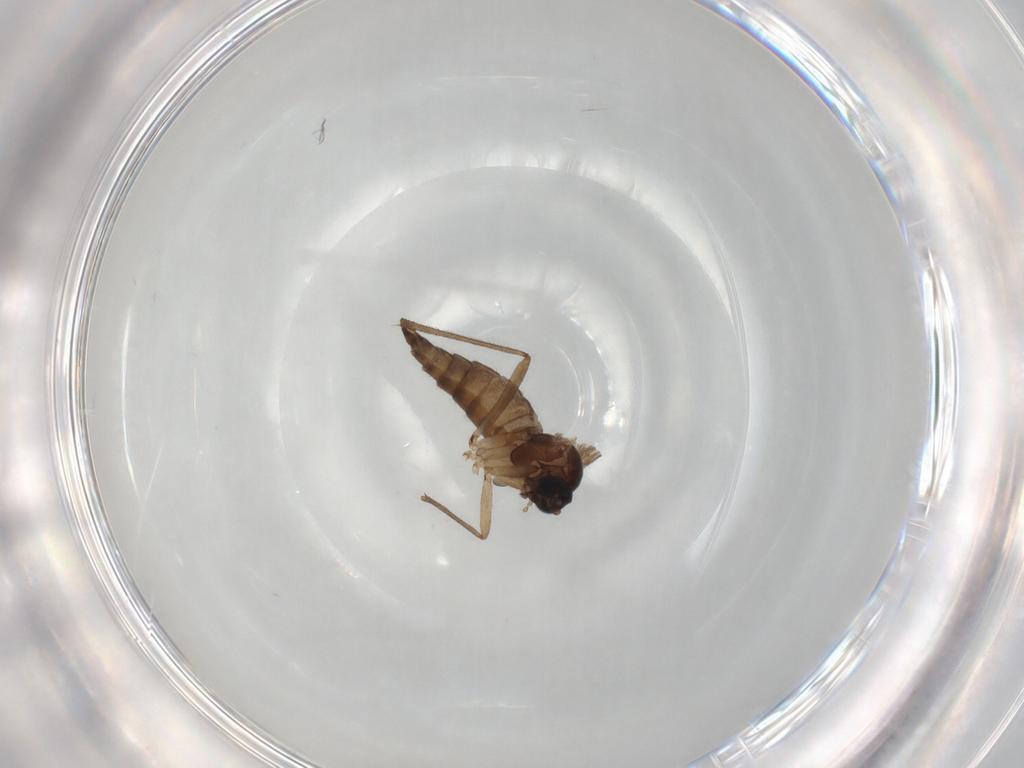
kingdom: Animalia
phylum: Arthropoda
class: Insecta
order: Diptera
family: Sciaridae
